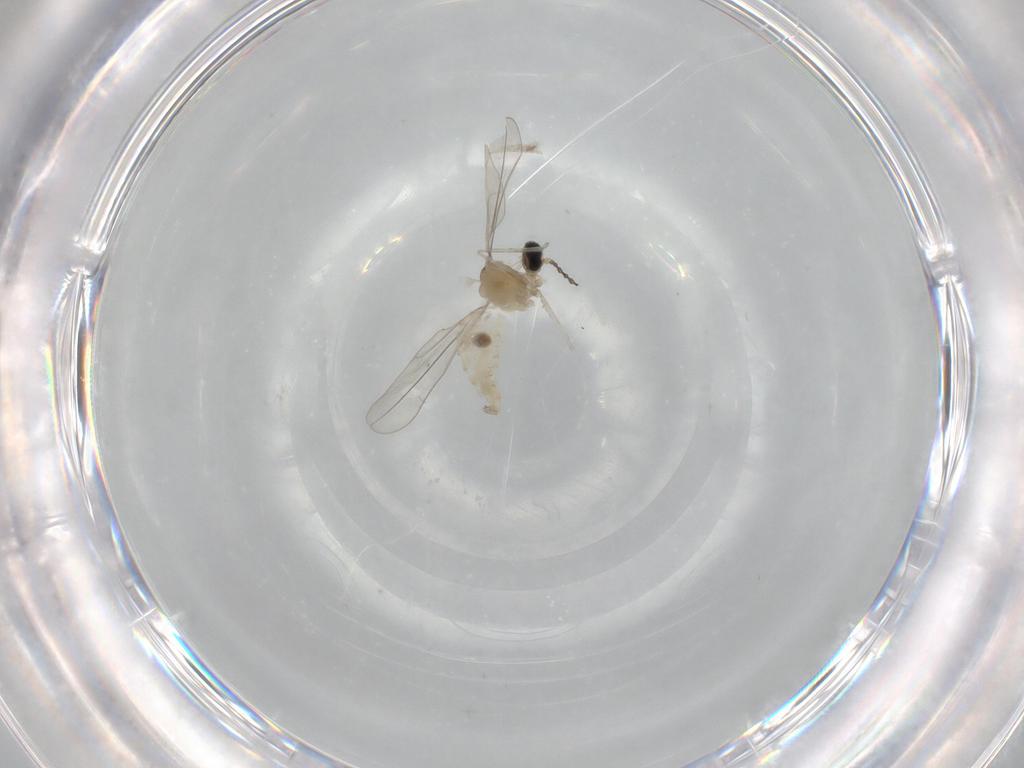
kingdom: Animalia
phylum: Arthropoda
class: Insecta
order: Diptera
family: Cecidomyiidae
